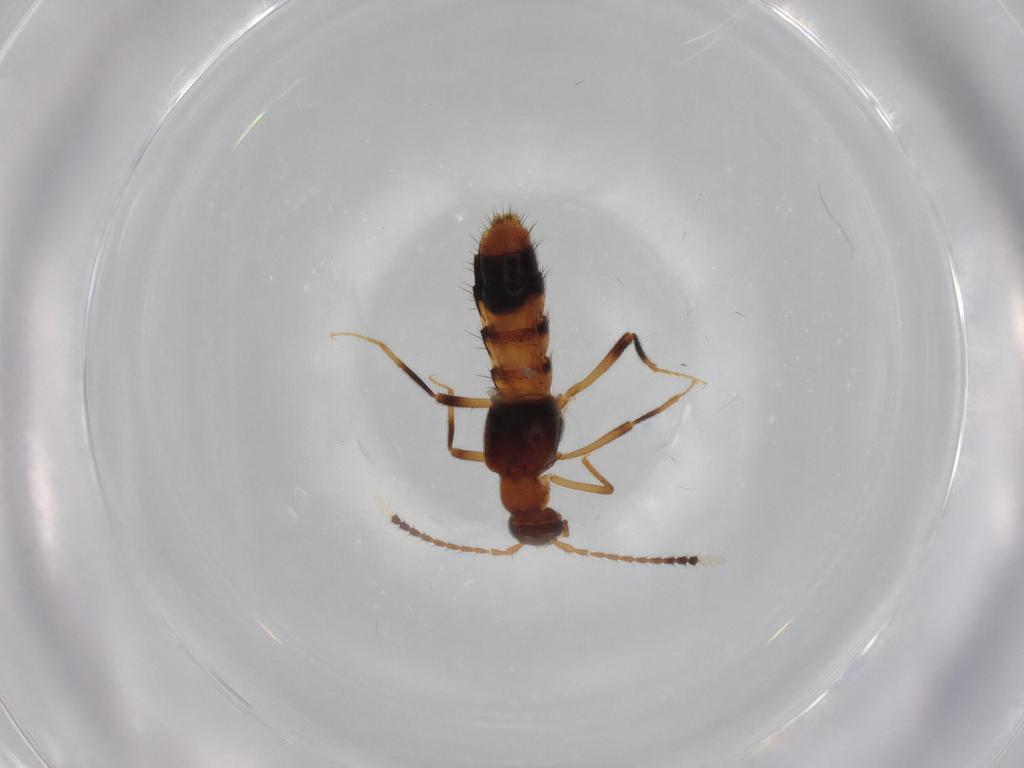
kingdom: Animalia
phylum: Arthropoda
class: Insecta
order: Coleoptera
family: Staphylinidae
